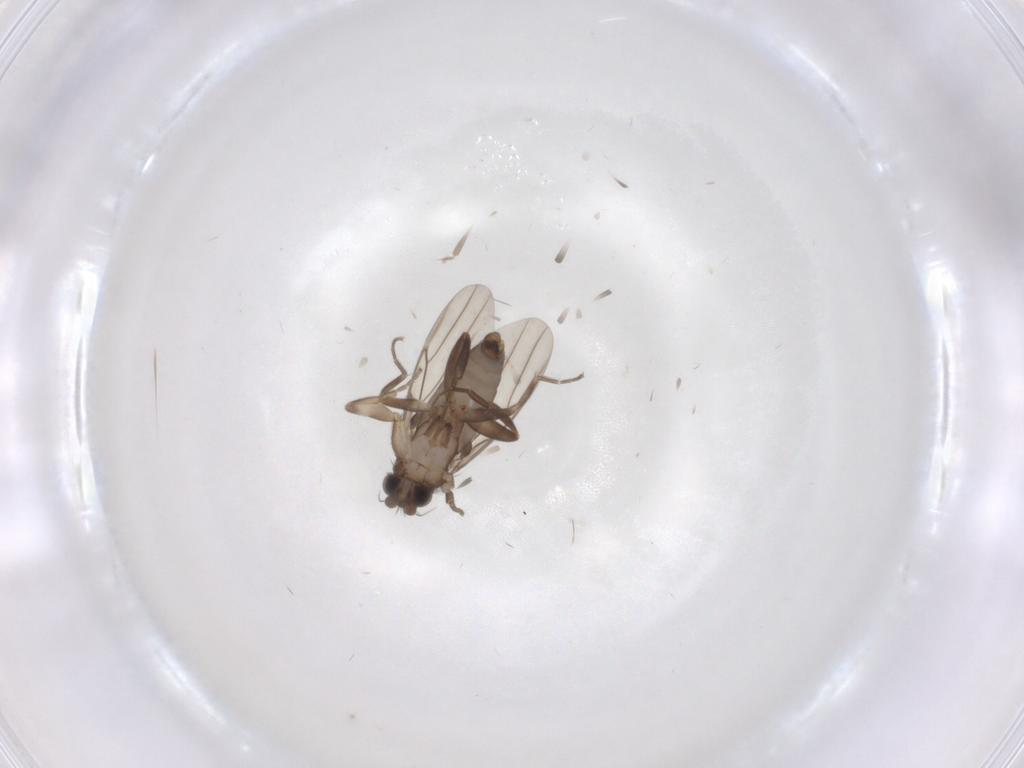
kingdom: Animalia
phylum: Arthropoda
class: Insecta
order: Diptera
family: Phoridae
